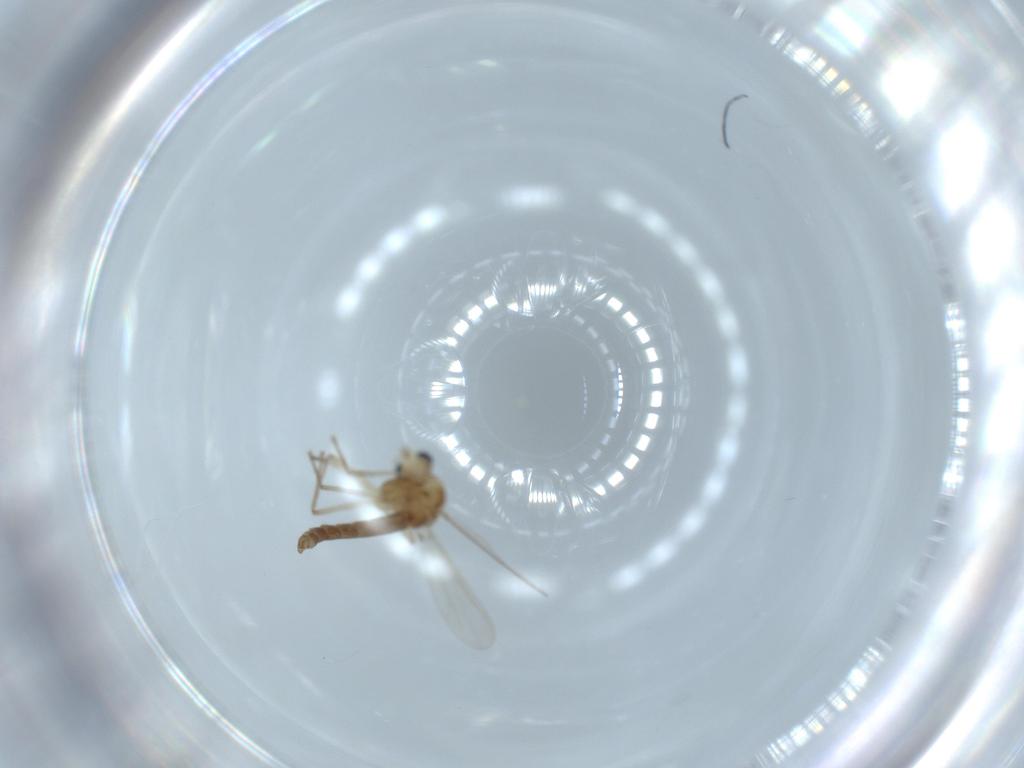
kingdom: Animalia
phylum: Arthropoda
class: Insecta
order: Diptera
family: Chironomidae
